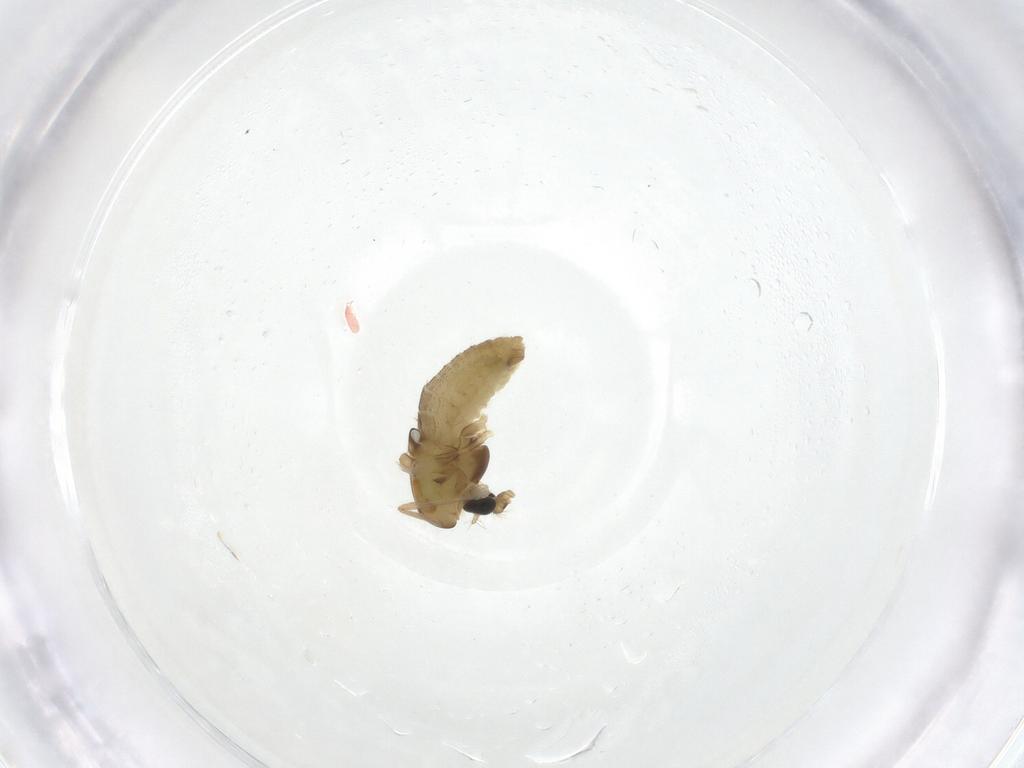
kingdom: Animalia
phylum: Arthropoda
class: Insecta
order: Diptera
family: Chironomidae
